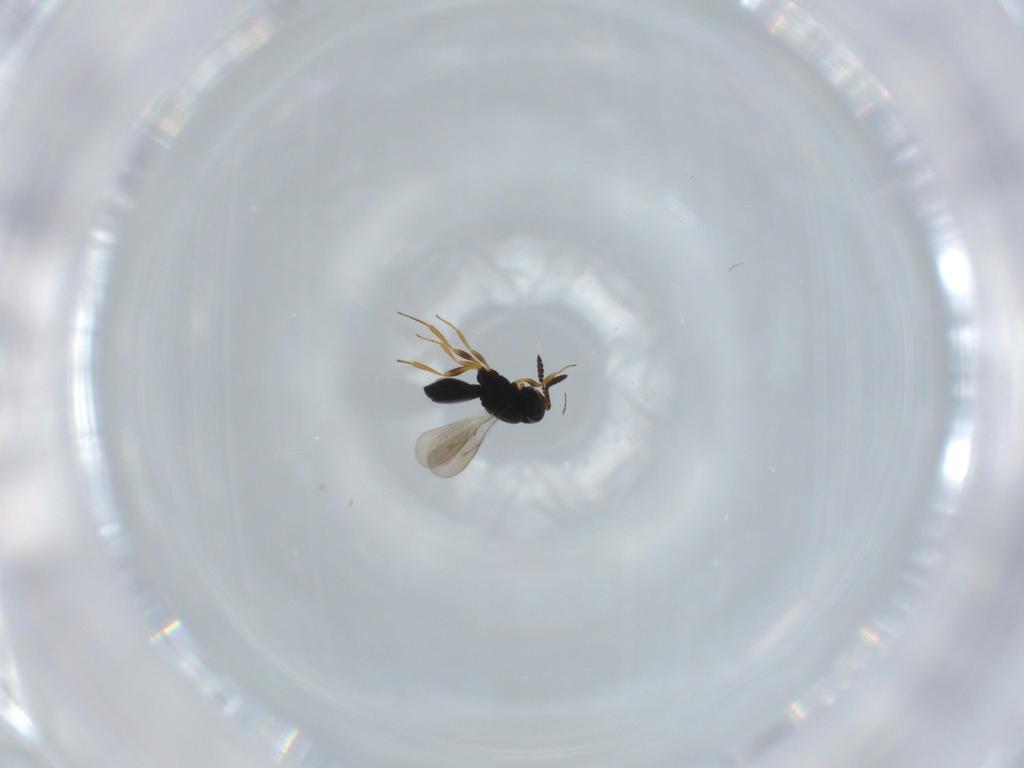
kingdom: Animalia
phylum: Arthropoda
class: Insecta
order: Hymenoptera
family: Scelionidae
